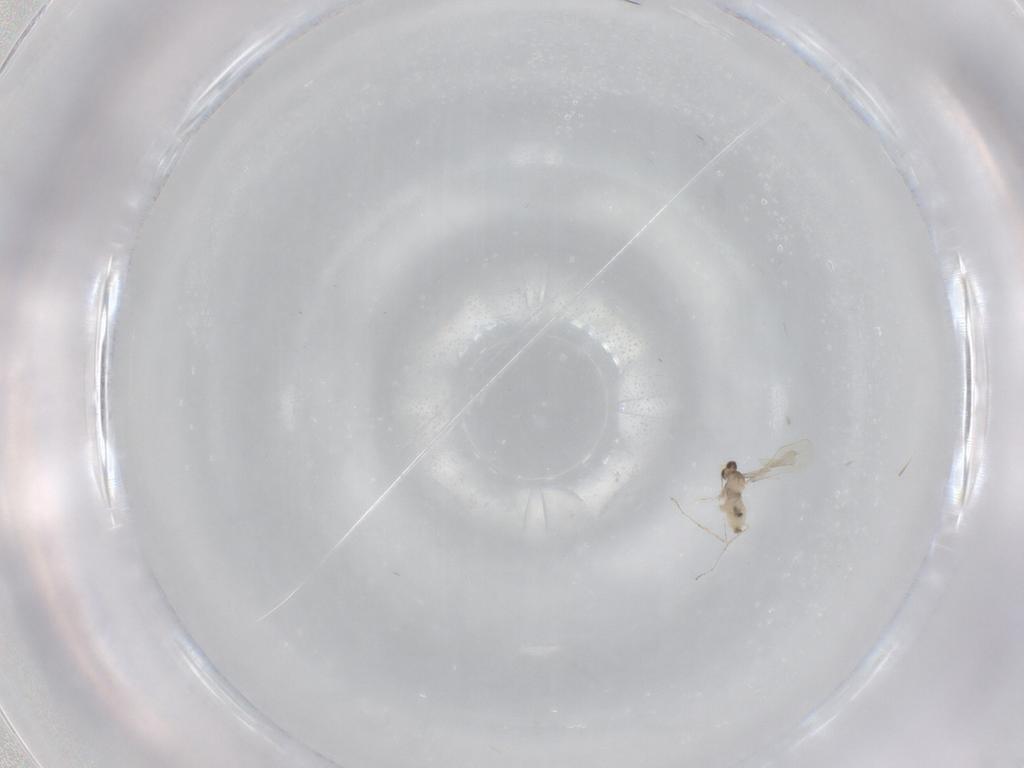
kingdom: Animalia
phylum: Arthropoda
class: Insecta
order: Diptera
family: Cecidomyiidae
